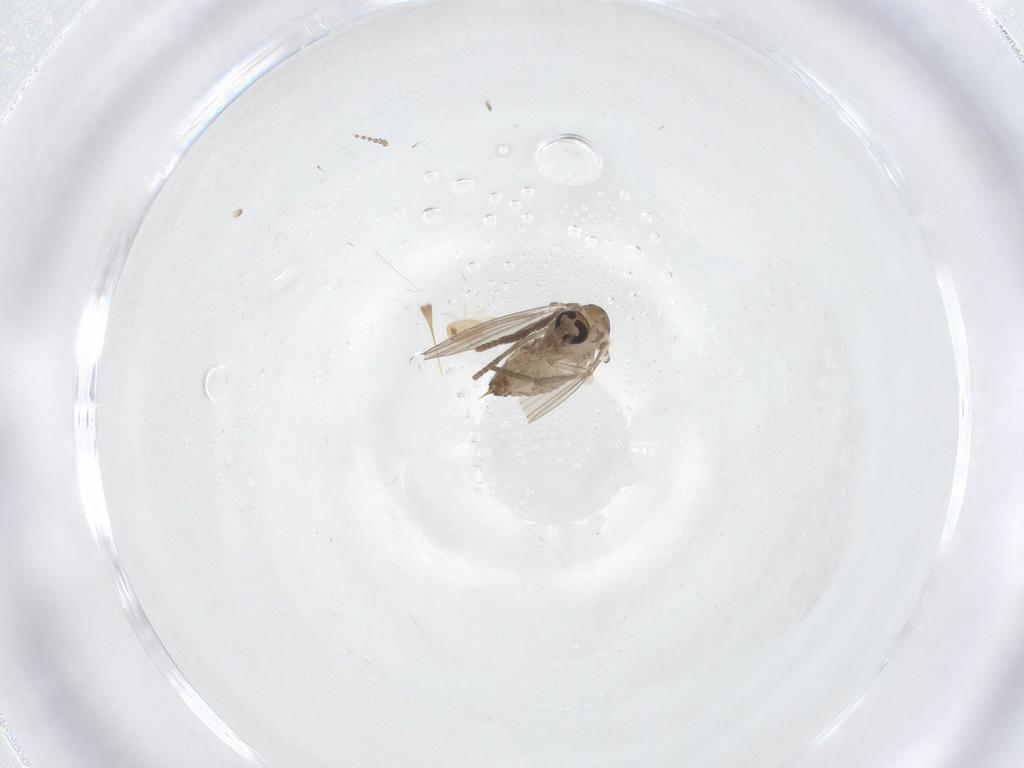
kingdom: Animalia
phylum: Arthropoda
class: Insecta
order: Diptera
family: Psychodidae
